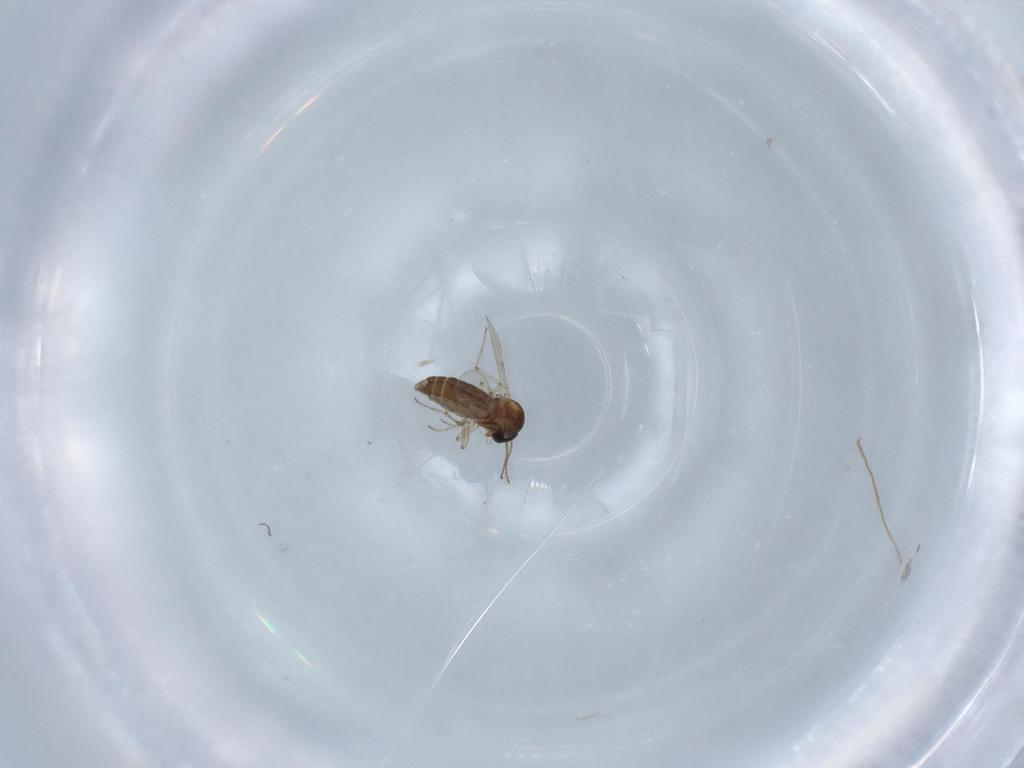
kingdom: Animalia
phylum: Arthropoda
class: Insecta
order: Diptera
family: Ceratopogonidae
